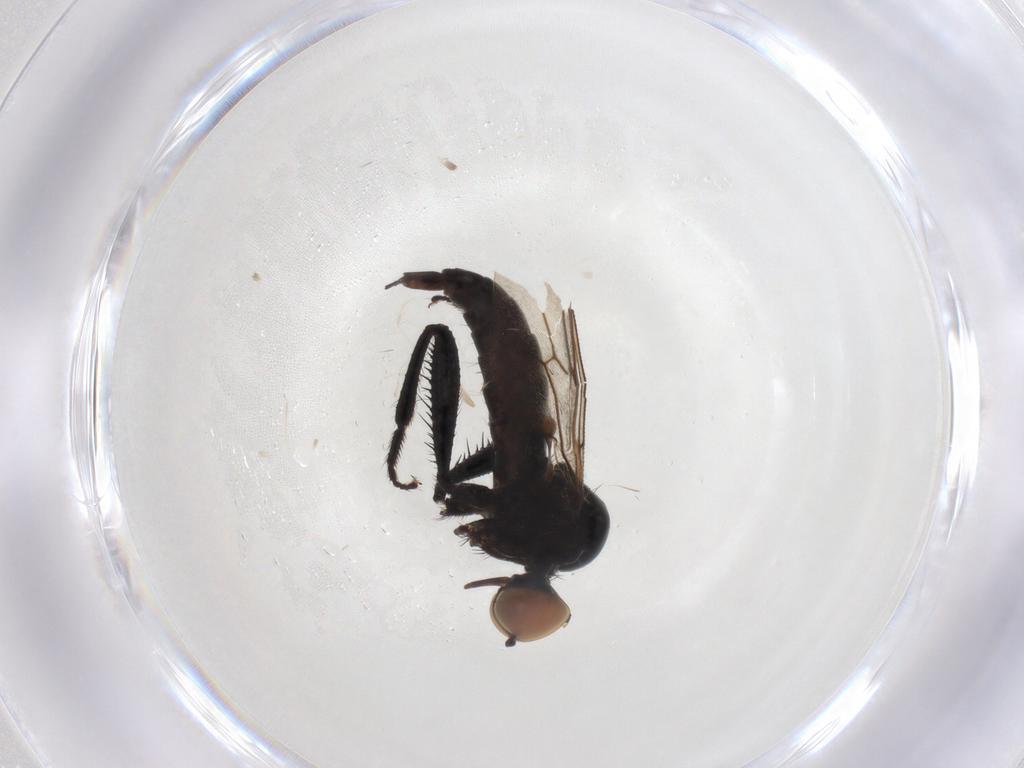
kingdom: Animalia
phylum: Arthropoda
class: Insecta
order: Diptera
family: Hybotidae
